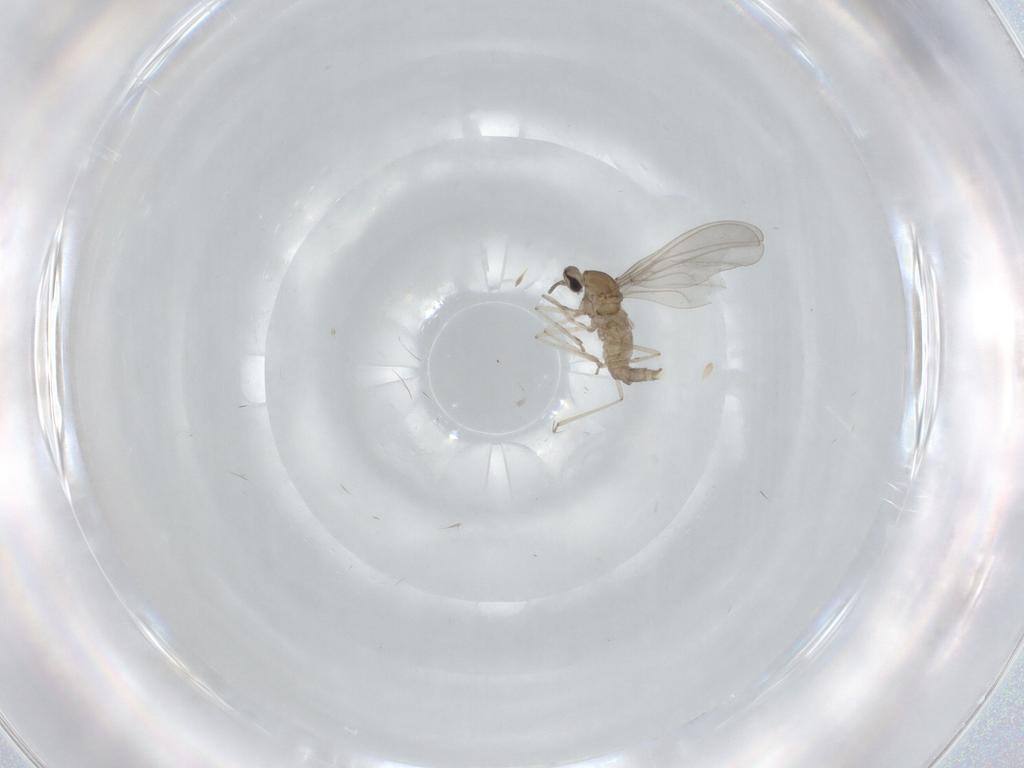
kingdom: Animalia
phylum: Arthropoda
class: Insecta
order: Diptera
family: Cecidomyiidae
